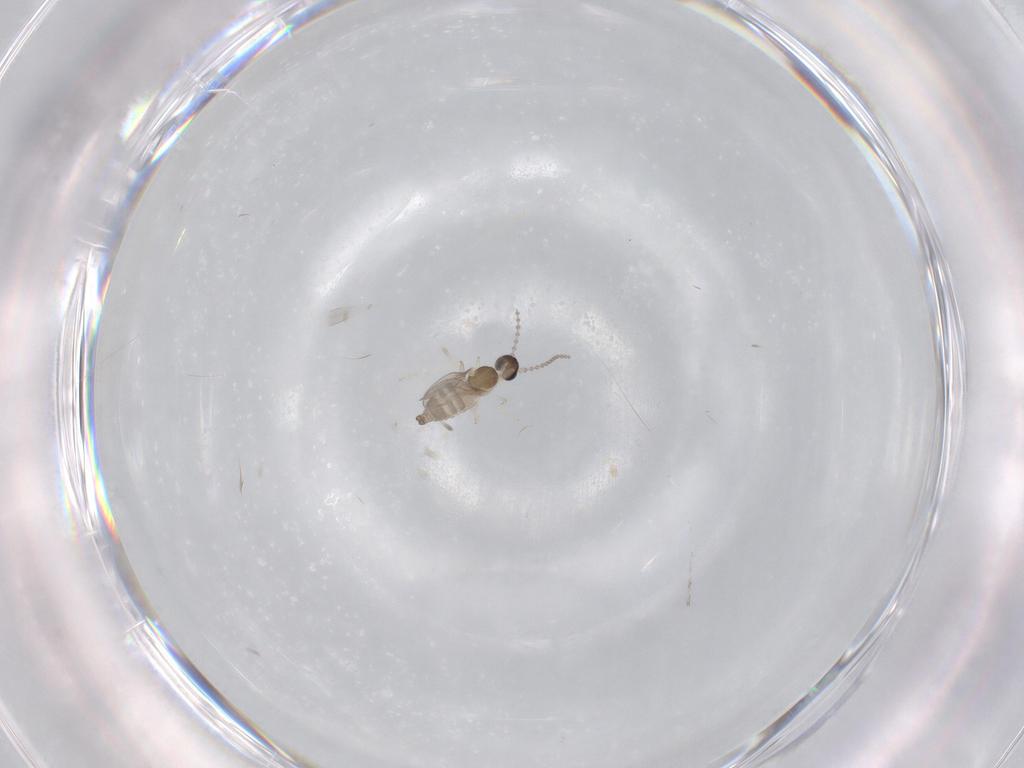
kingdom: Animalia
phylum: Arthropoda
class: Insecta
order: Diptera
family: Cecidomyiidae
